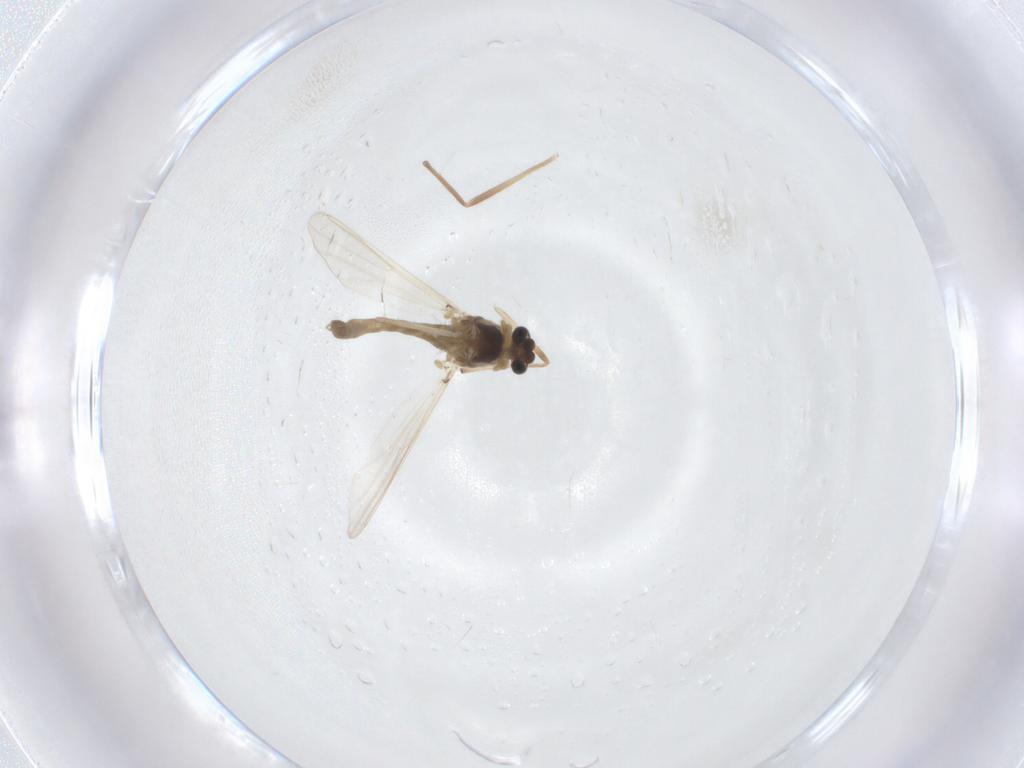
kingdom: Animalia
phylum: Arthropoda
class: Insecta
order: Diptera
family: Chironomidae
